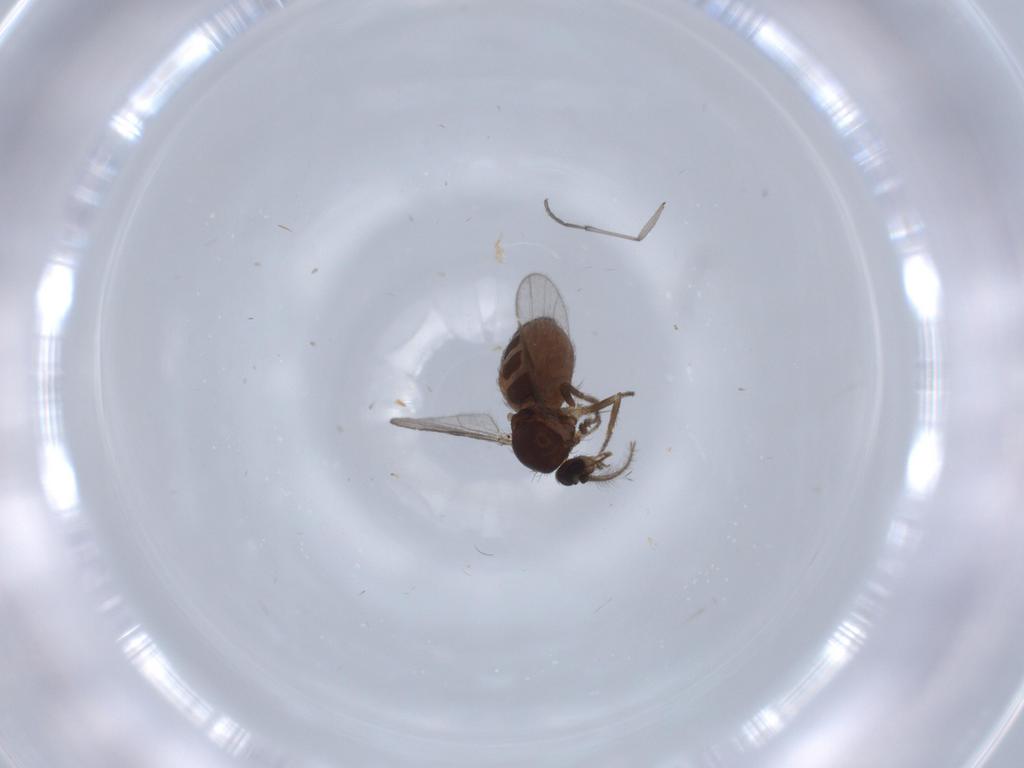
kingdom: Animalia
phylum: Arthropoda
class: Insecta
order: Diptera
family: Ceratopogonidae
